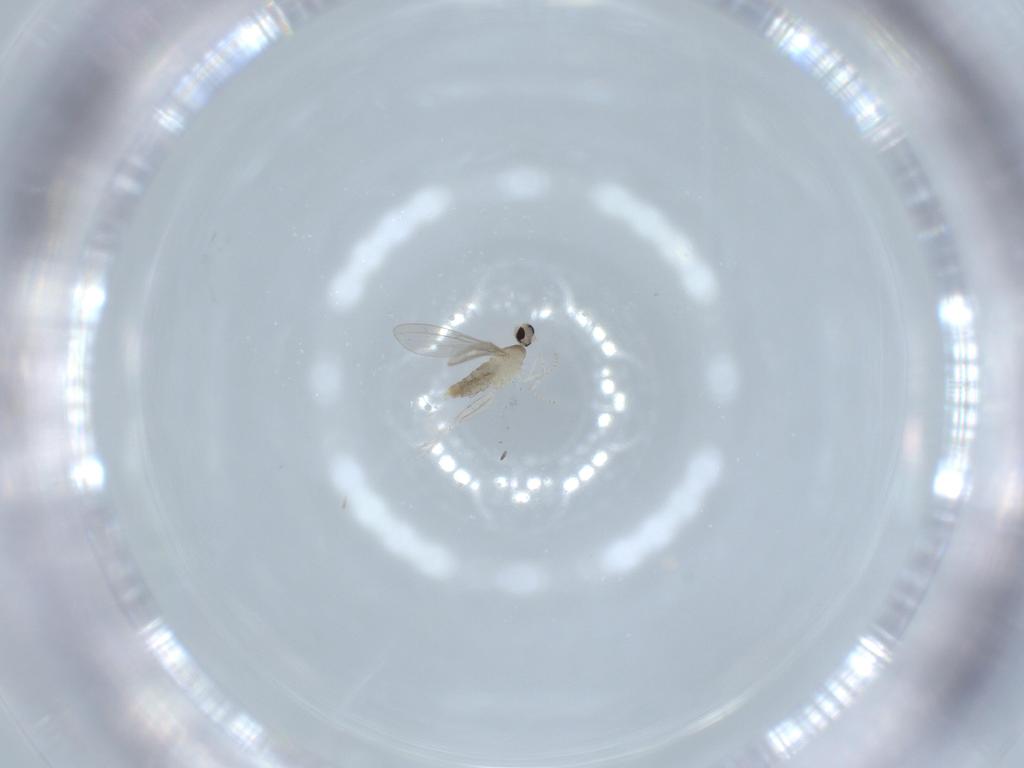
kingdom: Animalia
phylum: Arthropoda
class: Insecta
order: Diptera
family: Cecidomyiidae
